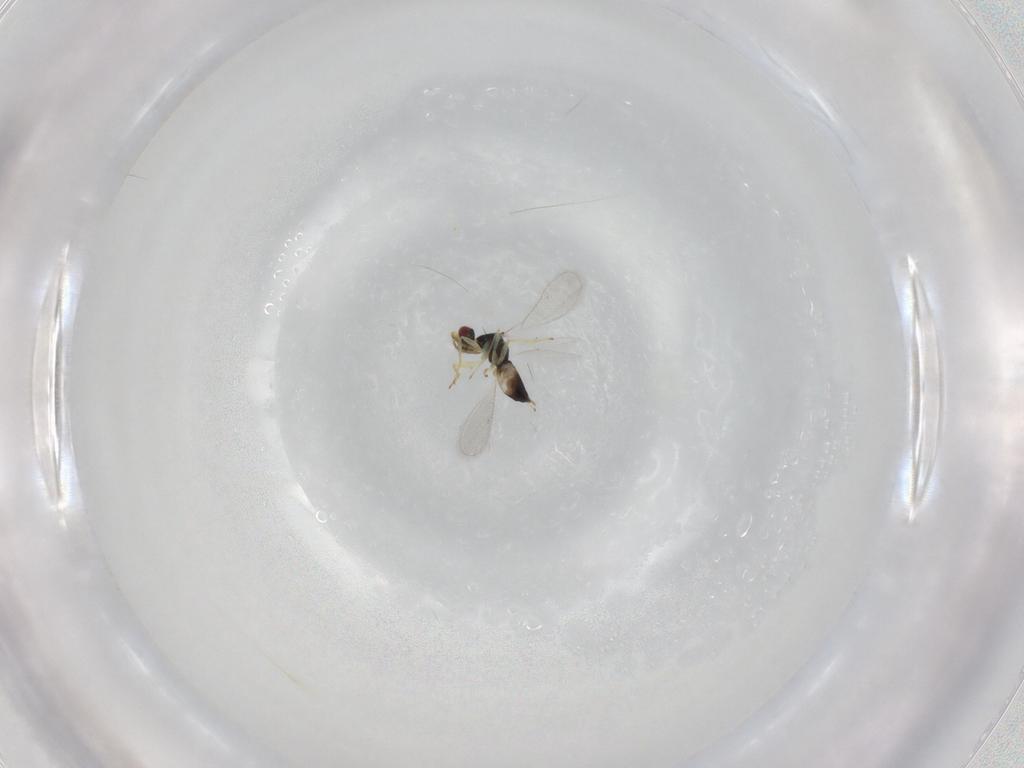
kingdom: Animalia
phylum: Arthropoda
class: Insecta
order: Hymenoptera
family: Eulophidae
